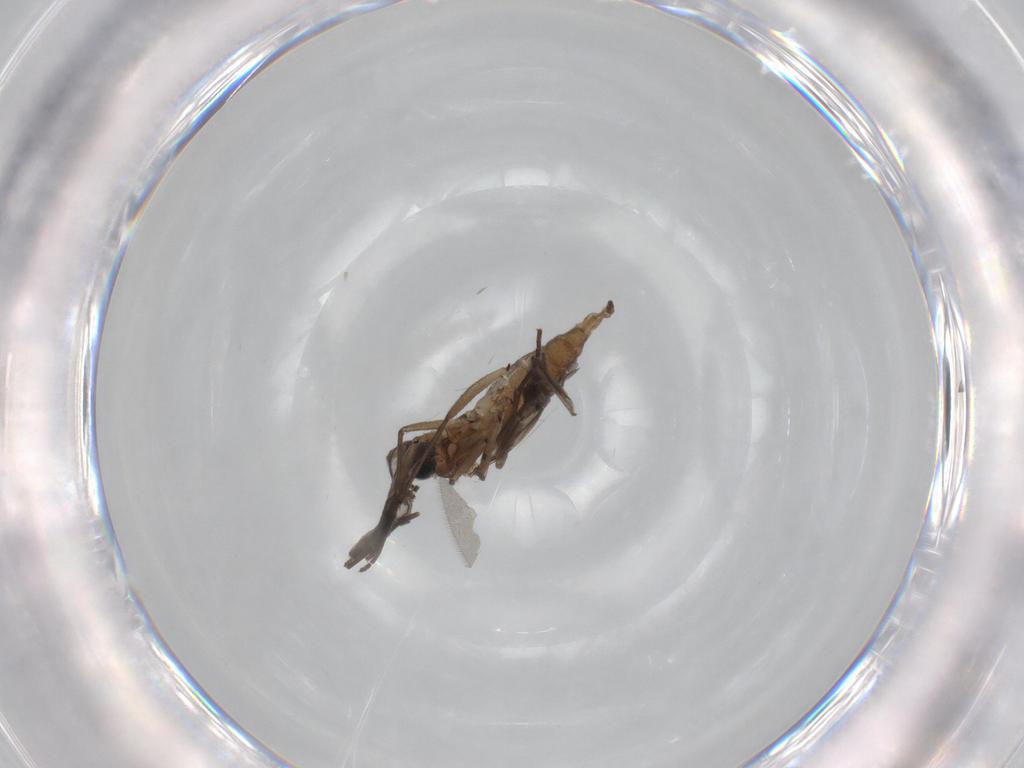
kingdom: Animalia
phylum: Arthropoda
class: Insecta
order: Diptera
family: Sciaridae
